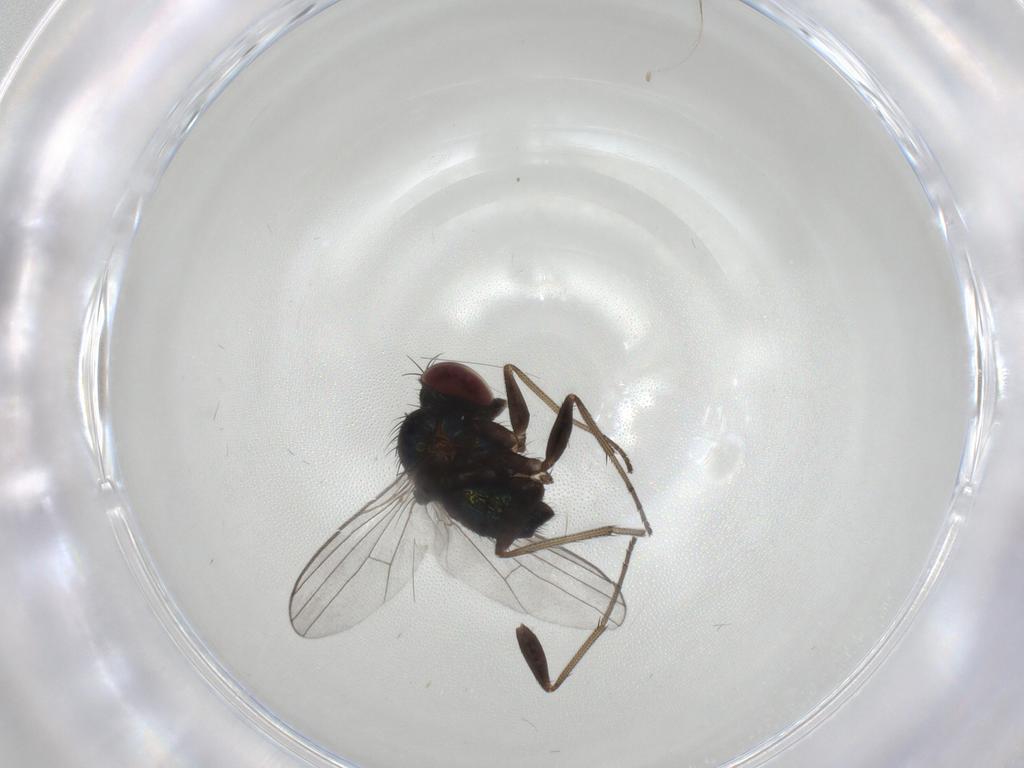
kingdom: Animalia
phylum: Arthropoda
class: Insecta
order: Diptera
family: Dolichopodidae
